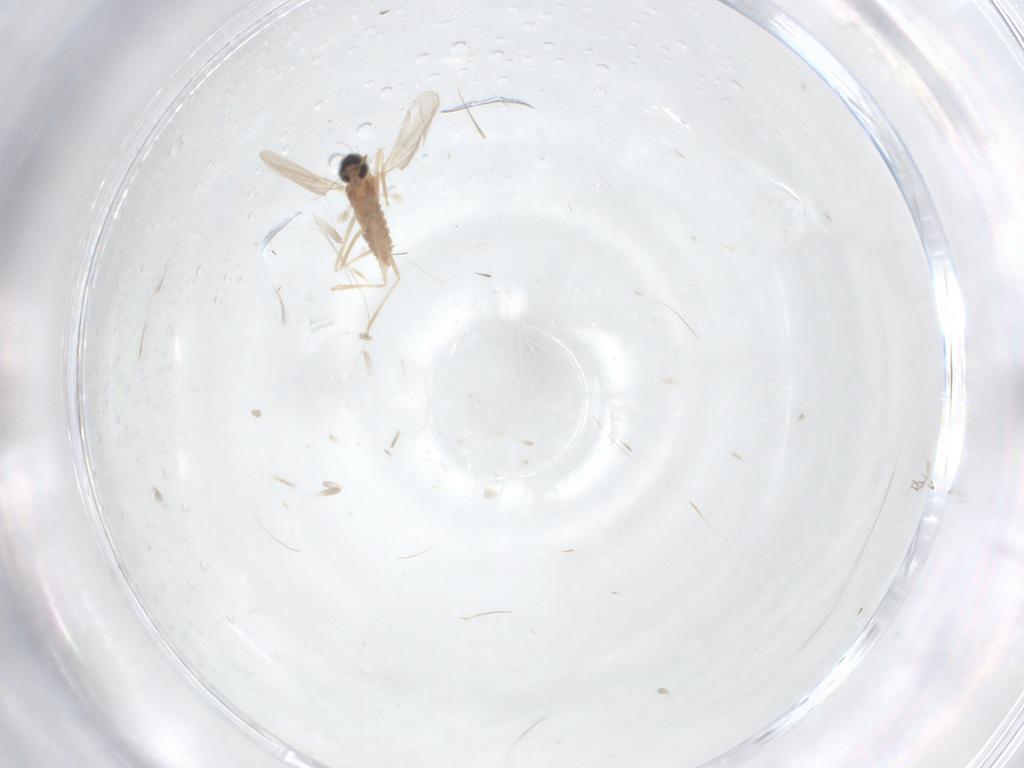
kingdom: Animalia
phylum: Arthropoda
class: Insecta
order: Diptera
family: Cecidomyiidae
